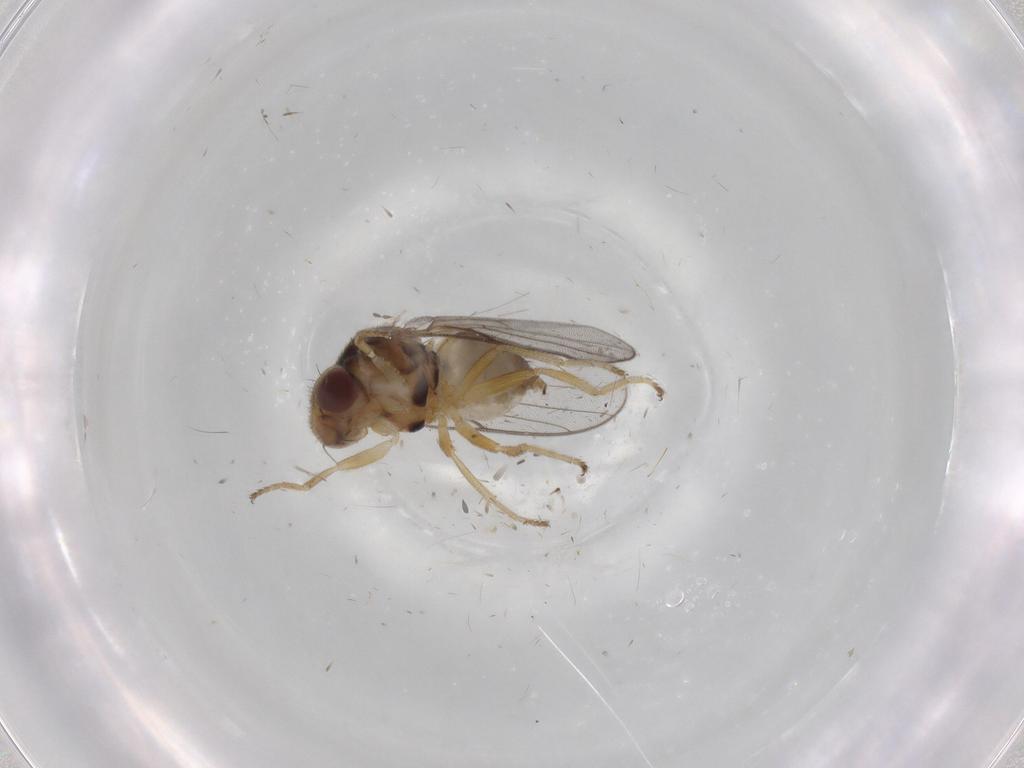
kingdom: Animalia
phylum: Arthropoda
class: Insecta
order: Diptera
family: Chloropidae
